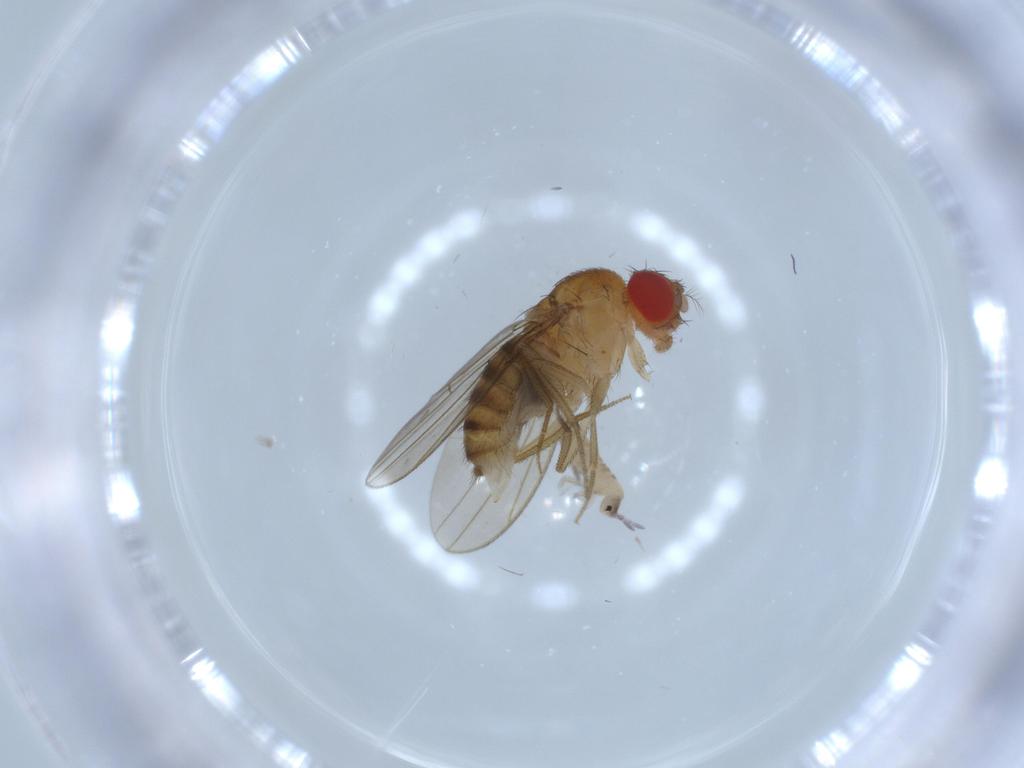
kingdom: Animalia
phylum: Arthropoda
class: Insecta
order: Diptera
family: Drosophilidae
